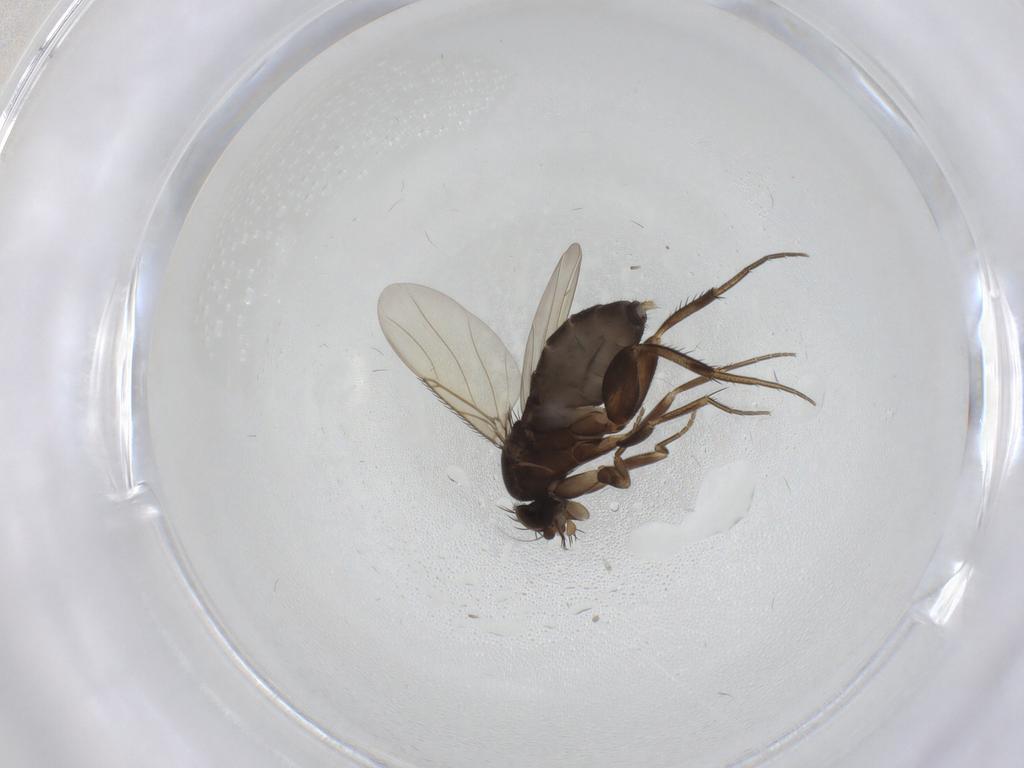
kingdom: Animalia
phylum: Arthropoda
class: Insecta
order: Diptera
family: Phoridae
